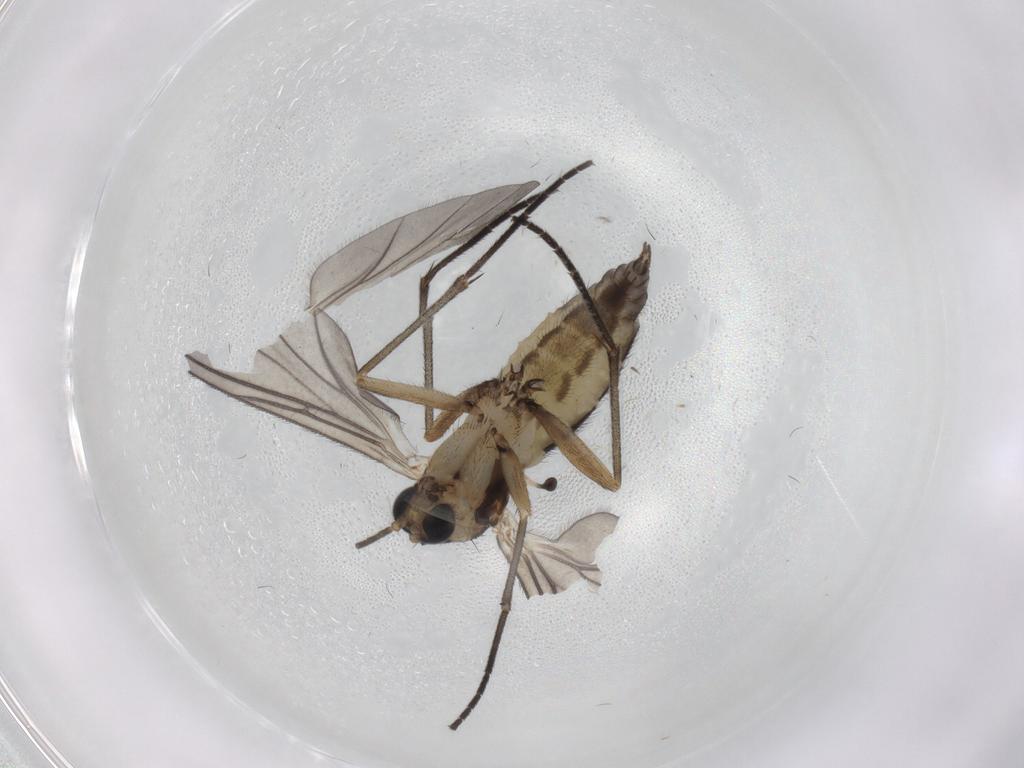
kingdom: Animalia
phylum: Arthropoda
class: Insecta
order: Diptera
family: Sciaridae
